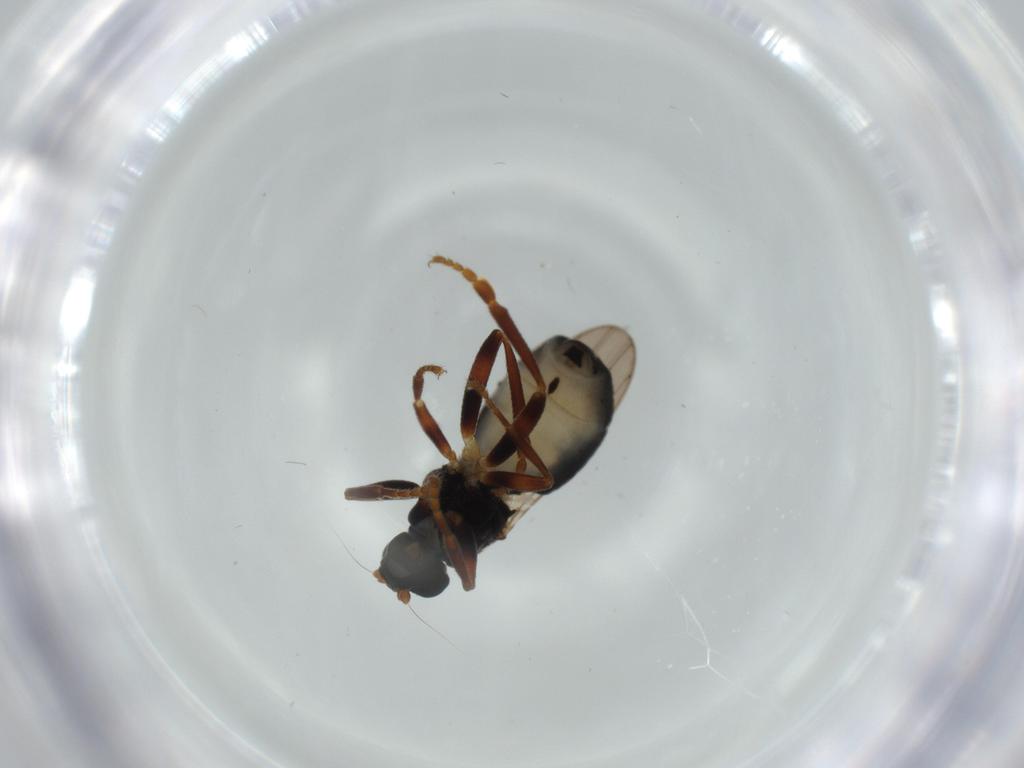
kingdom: Animalia
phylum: Arthropoda
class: Insecta
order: Diptera
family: Sphaeroceridae
